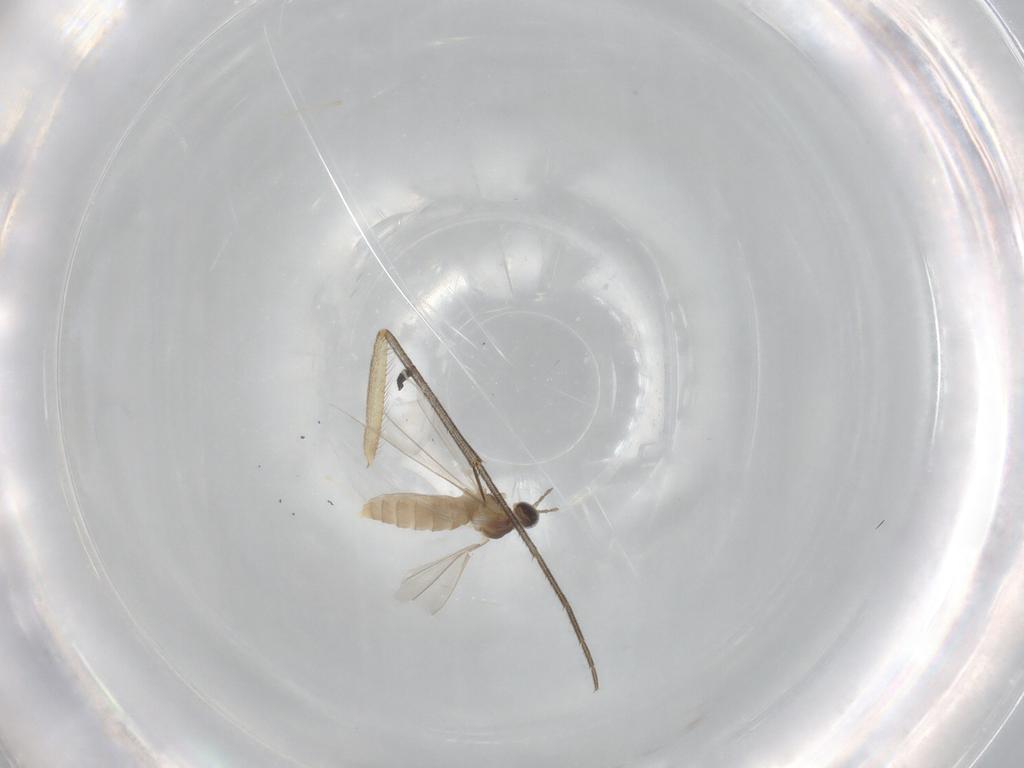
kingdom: Animalia
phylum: Arthropoda
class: Insecta
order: Diptera
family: Cecidomyiidae
